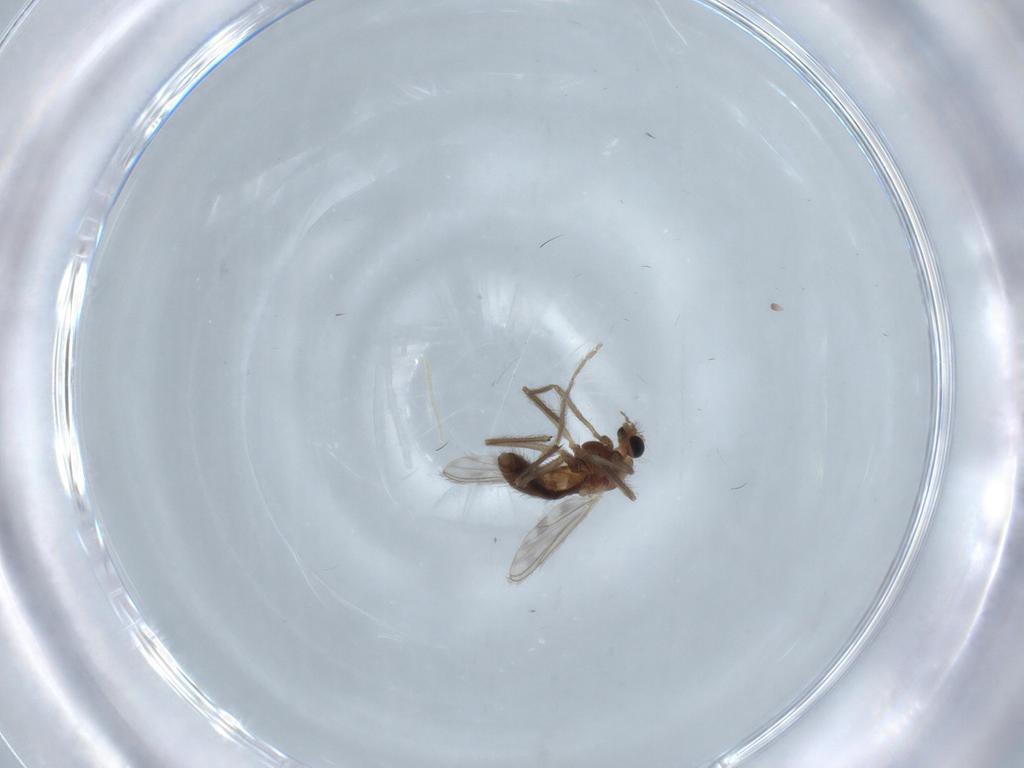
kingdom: Animalia
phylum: Arthropoda
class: Insecta
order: Diptera
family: Chironomidae
